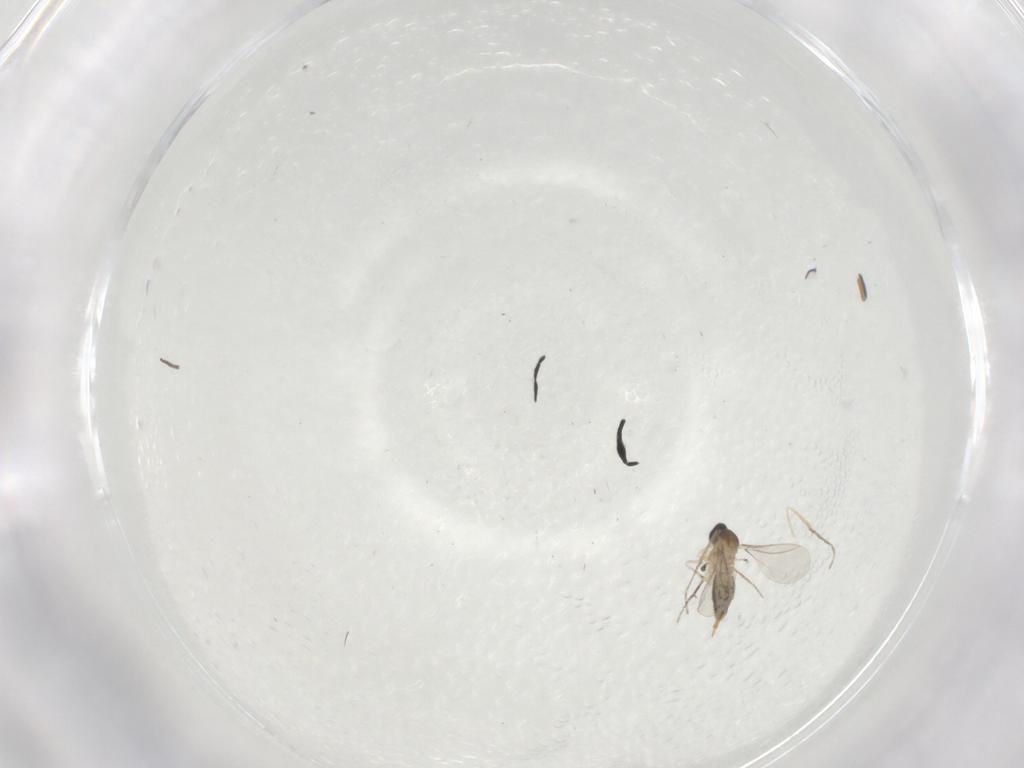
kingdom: Animalia
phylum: Arthropoda
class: Insecta
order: Diptera
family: Cecidomyiidae
